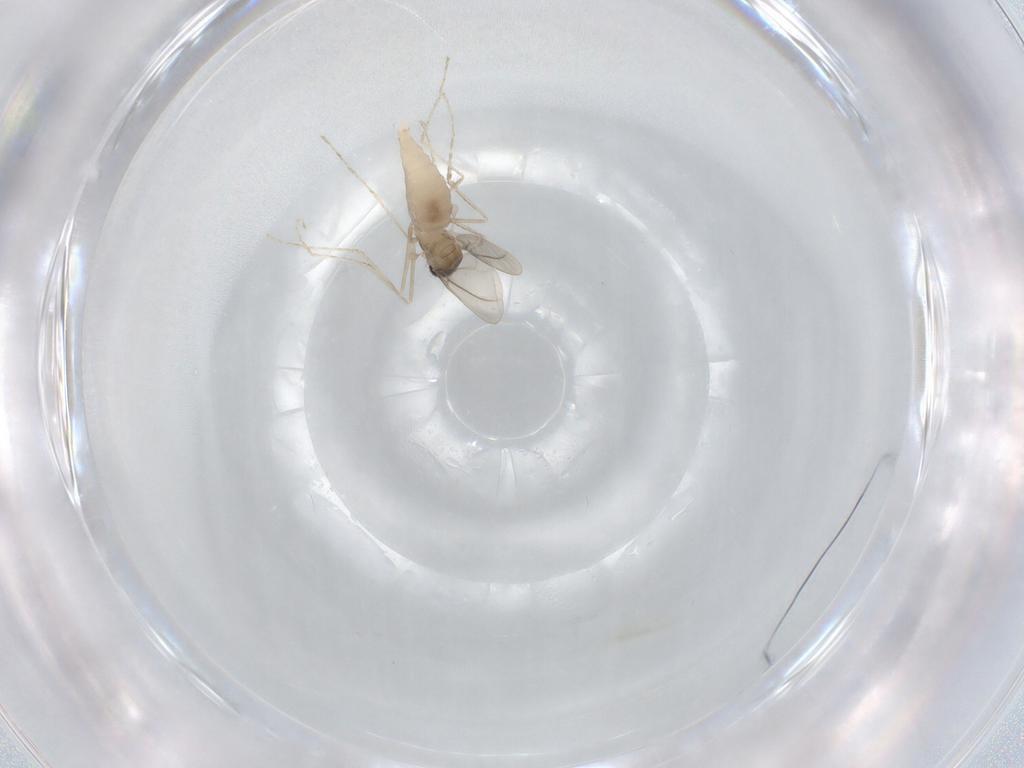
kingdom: Animalia
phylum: Arthropoda
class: Insecta
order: Diptera
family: Cecidomyiidae
